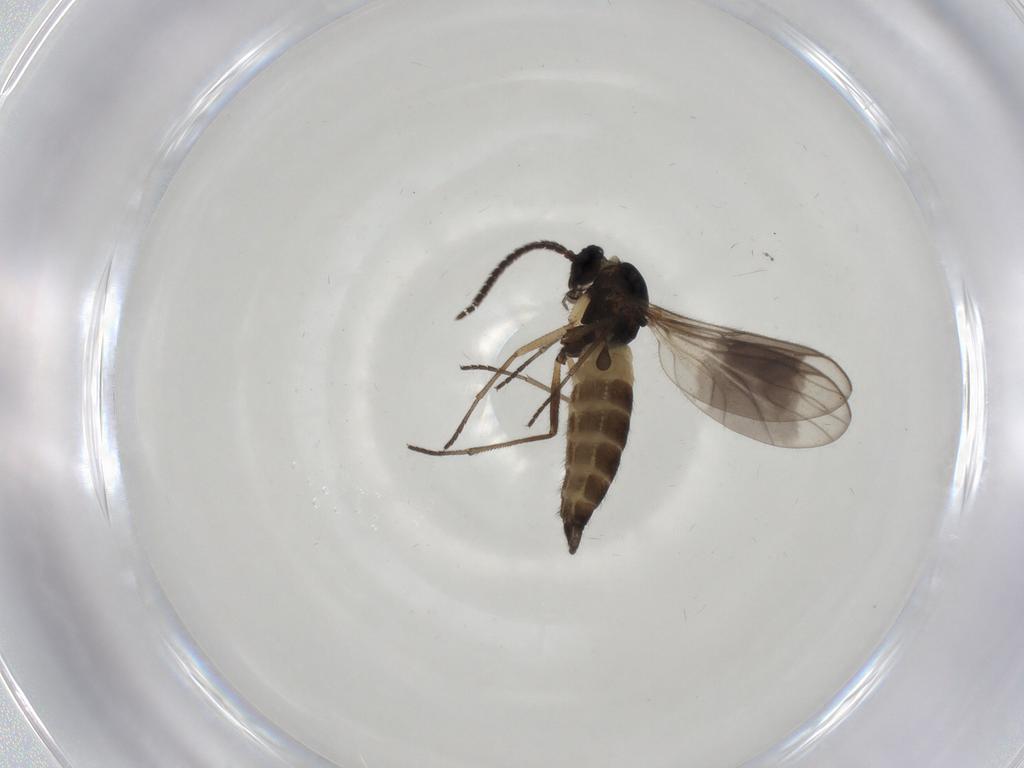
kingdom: Animalia
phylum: Arthropoda
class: Insecta
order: Diptera
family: Sciaridae
